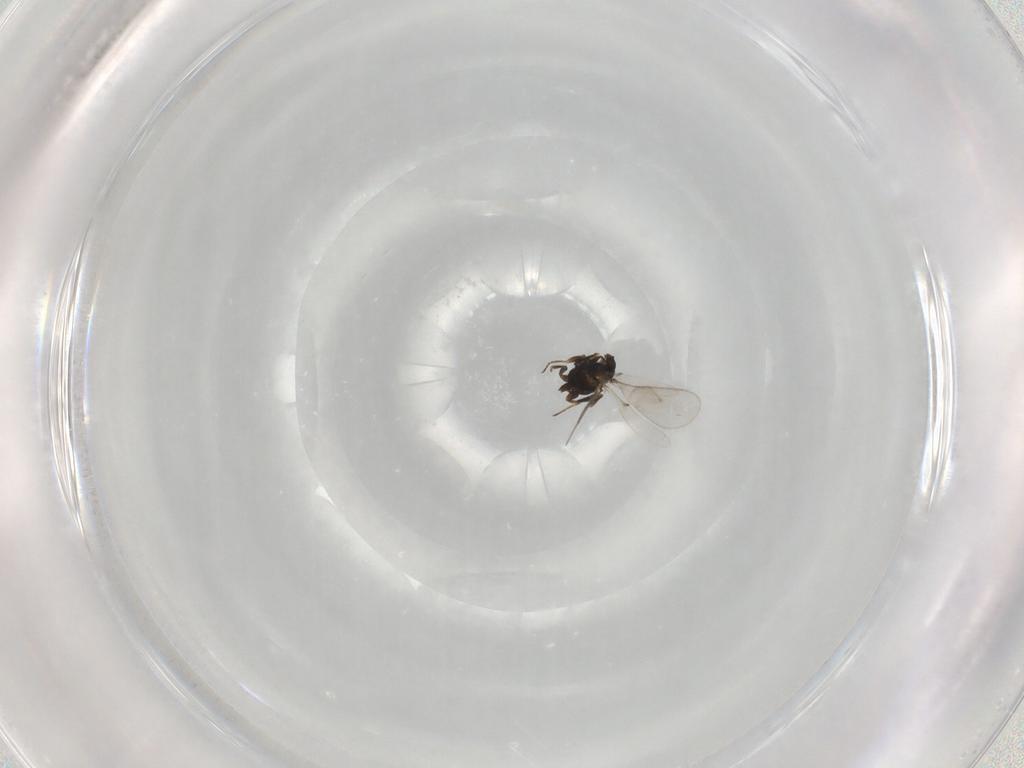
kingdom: Animalia
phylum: Arthropoda
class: Insecta
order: Hymenoptera
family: Scelionidae
